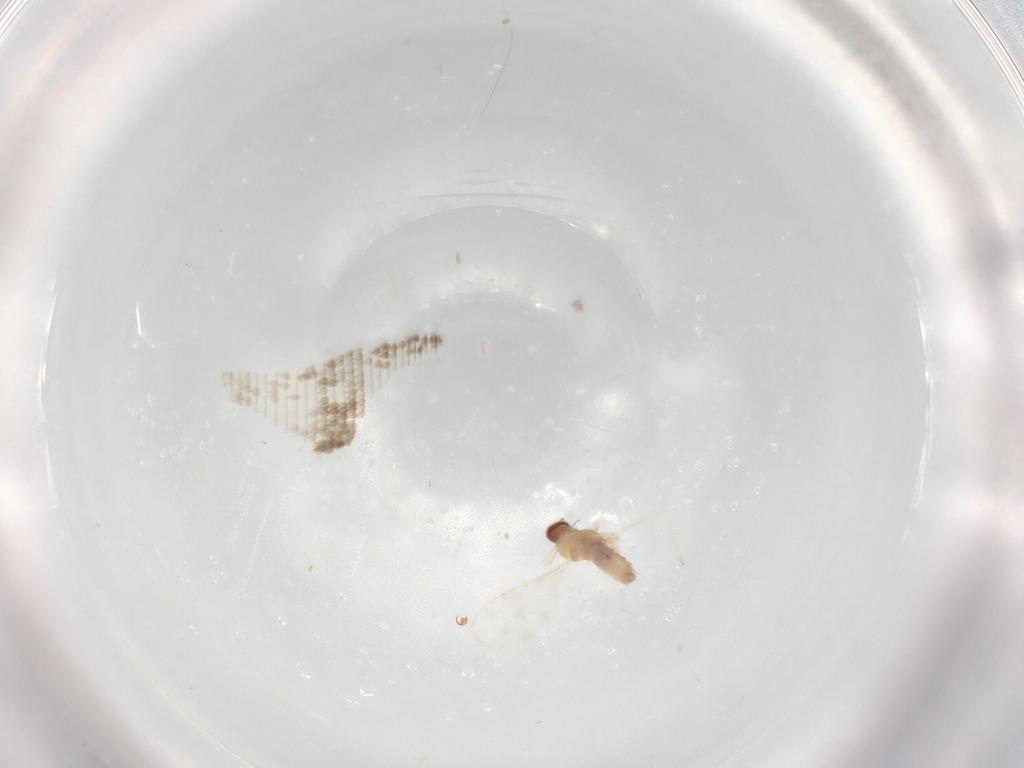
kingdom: Animalia
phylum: Arthropoda
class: Insecta
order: Diptera
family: Cecidomyiidae
